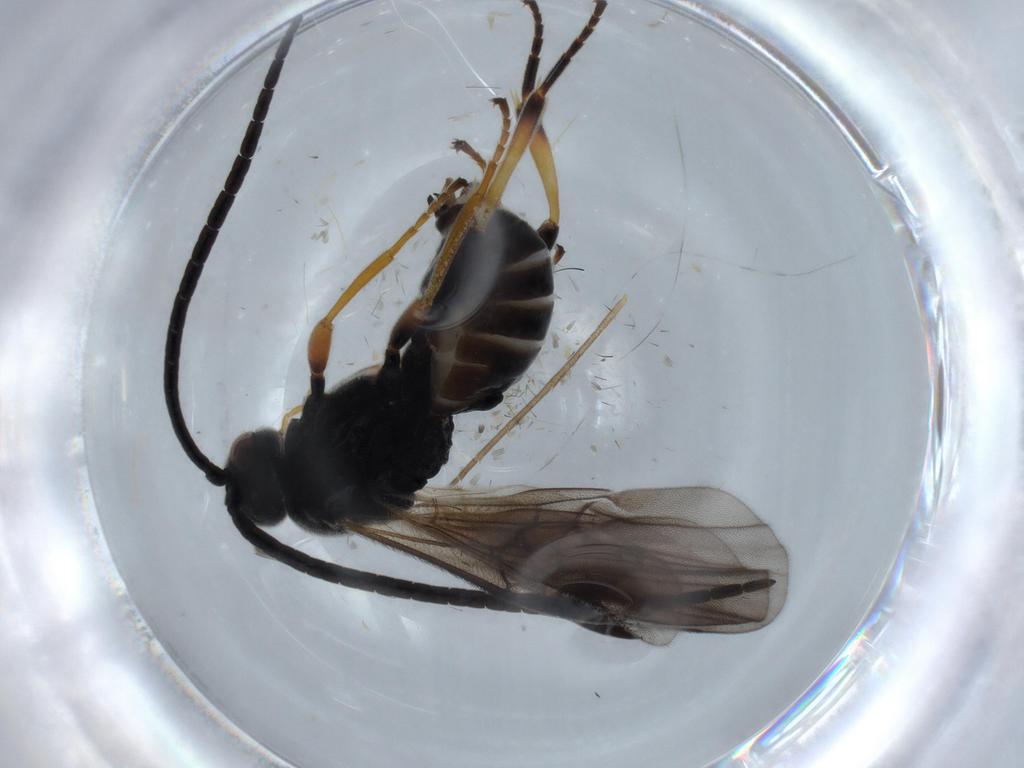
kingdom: Animalia
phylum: Arthropoda
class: Insecta
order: Hymenoptera
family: Braconidae
